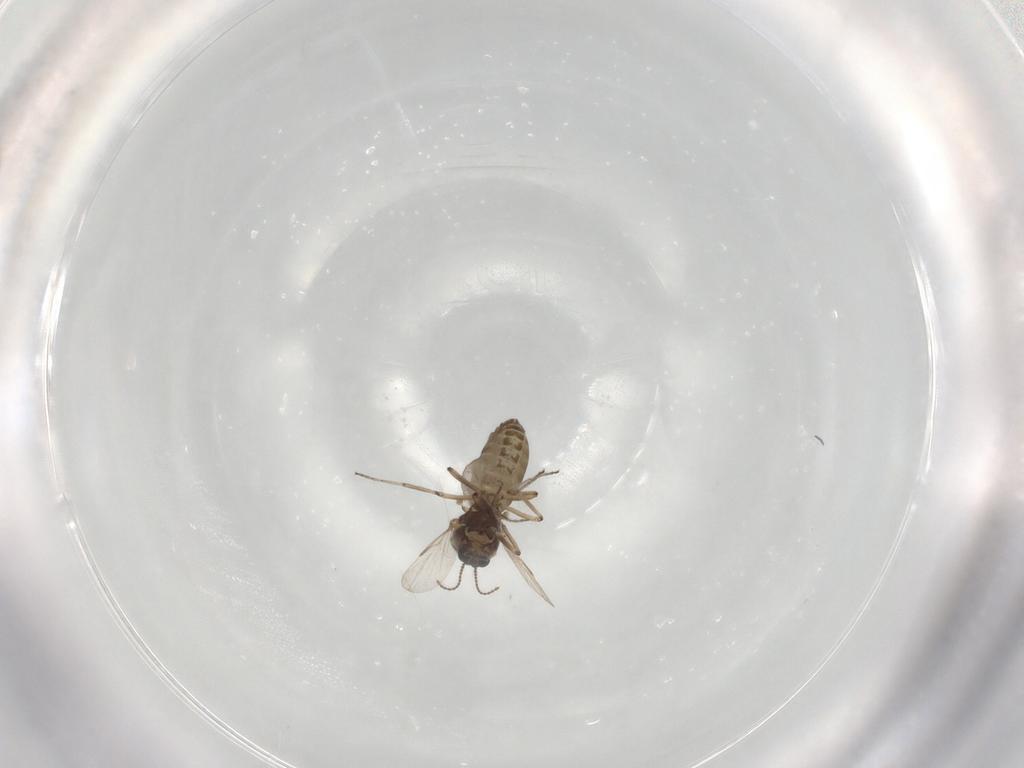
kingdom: Animalia
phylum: Arthropoda
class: Insecta
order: Diptera
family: Ceratopogonidae
